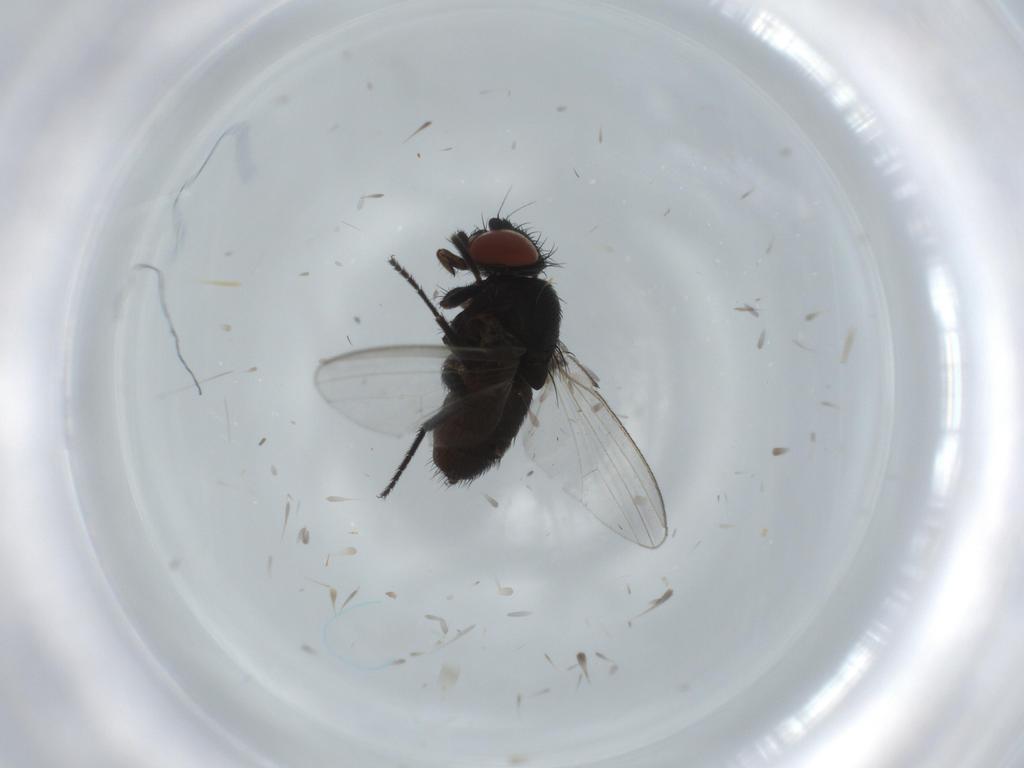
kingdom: Animalia
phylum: Arthropoda
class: Insecta
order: Diptera
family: Milichiidae
